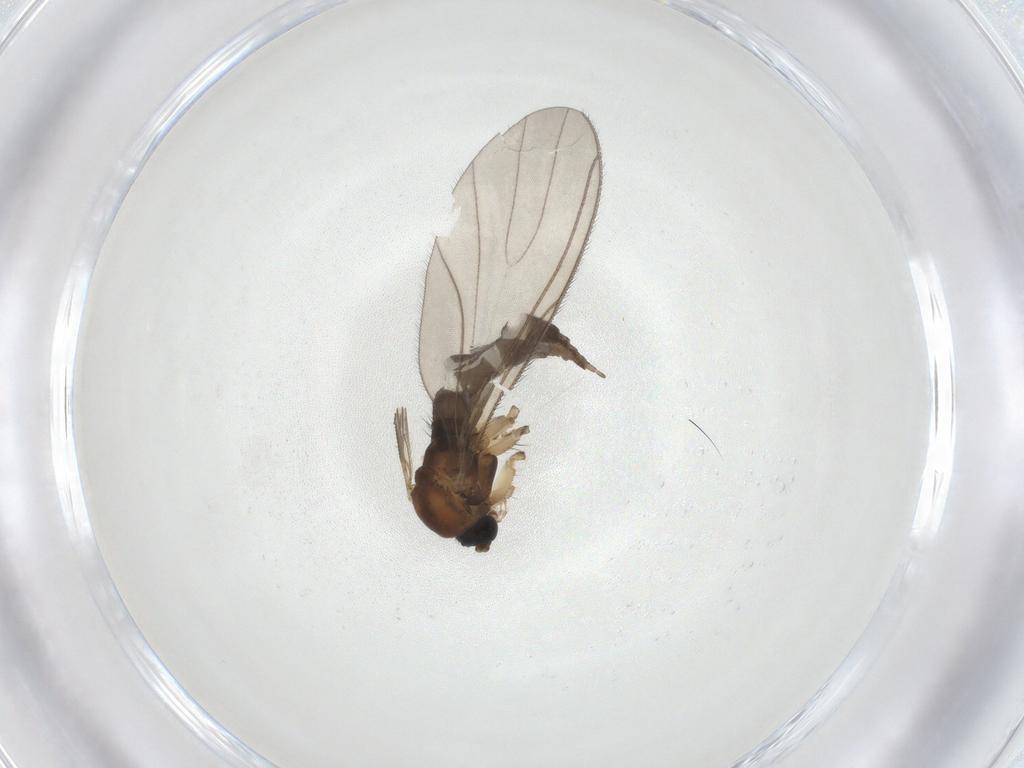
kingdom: Animalia
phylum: Arthropoda
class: Insecta
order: Diptera
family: Sciaridae
